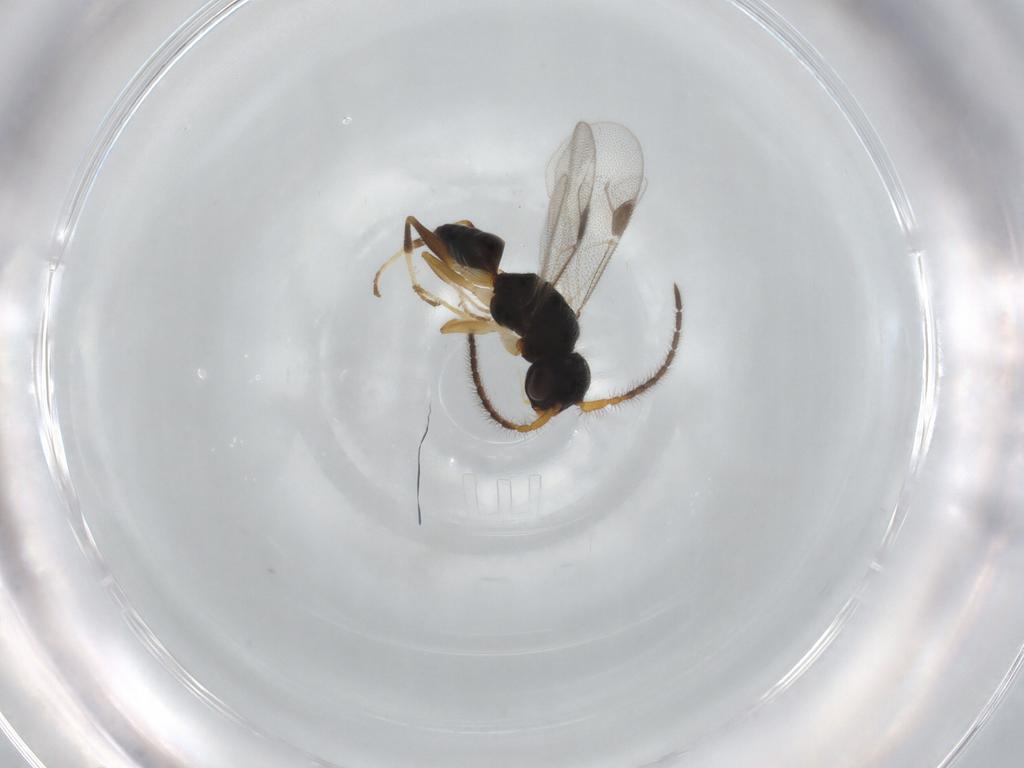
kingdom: Animalia
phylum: Arthropoda
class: Insecta
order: Hymenoptera
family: Dryinidae
